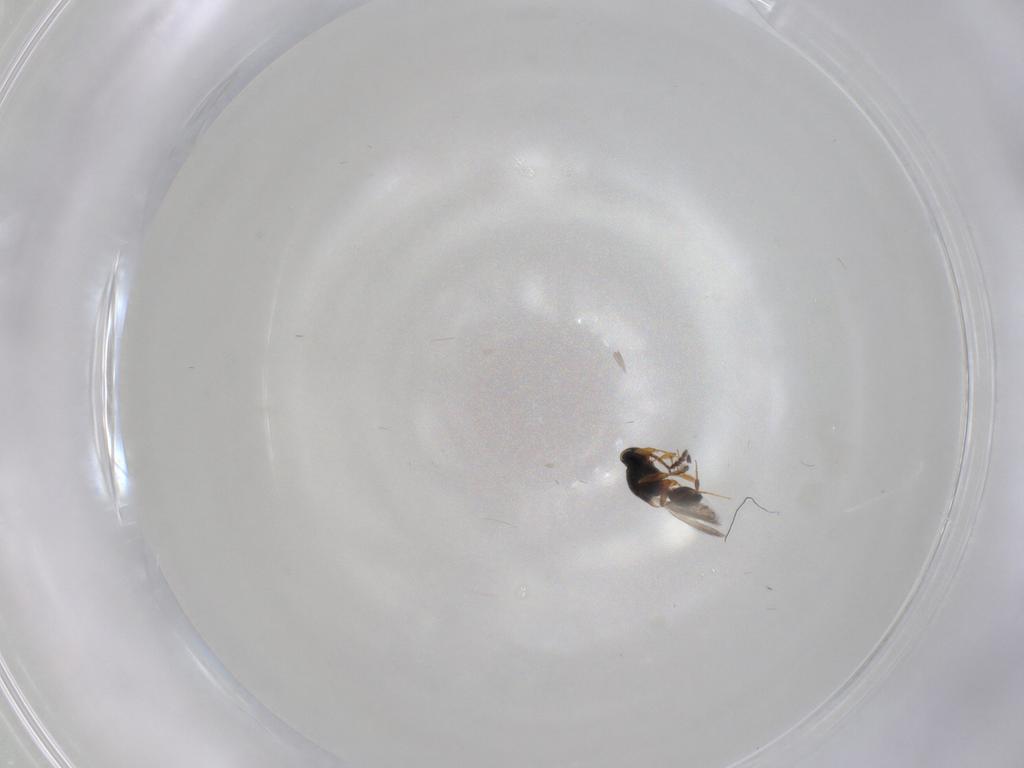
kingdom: Animalia
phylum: Arthropoda
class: Insecta
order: Hymenoptera
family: Platygastridae
